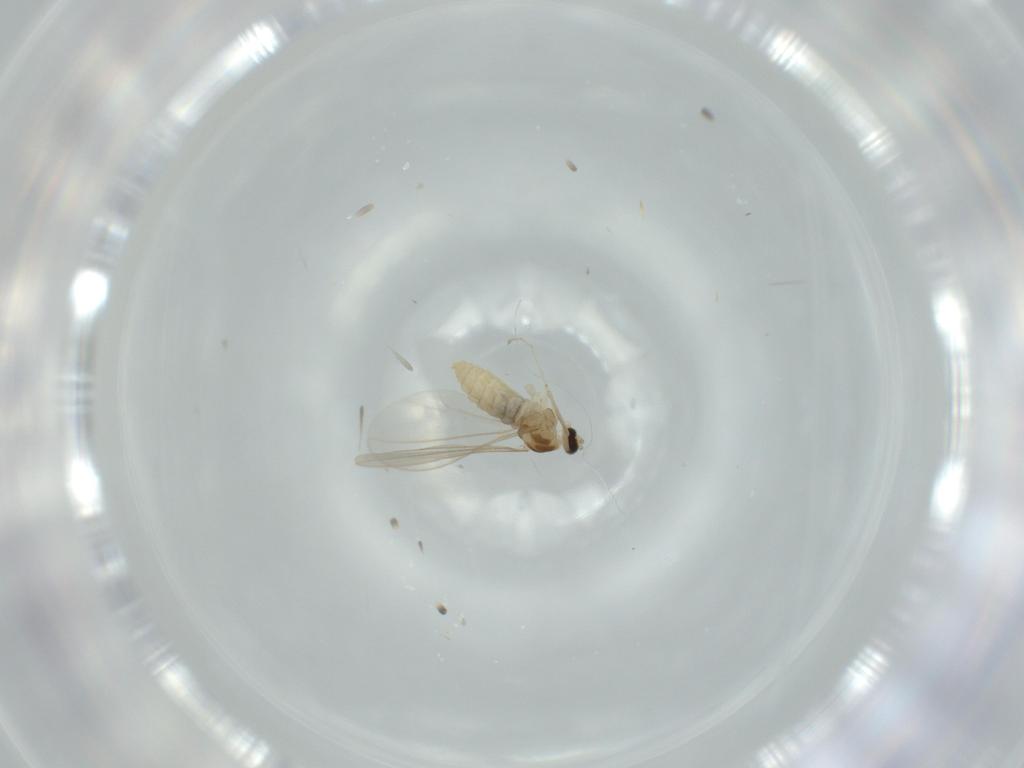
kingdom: Animalia
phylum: Arthropoda
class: Insecta
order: Diptera
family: Cecidomyiidae
